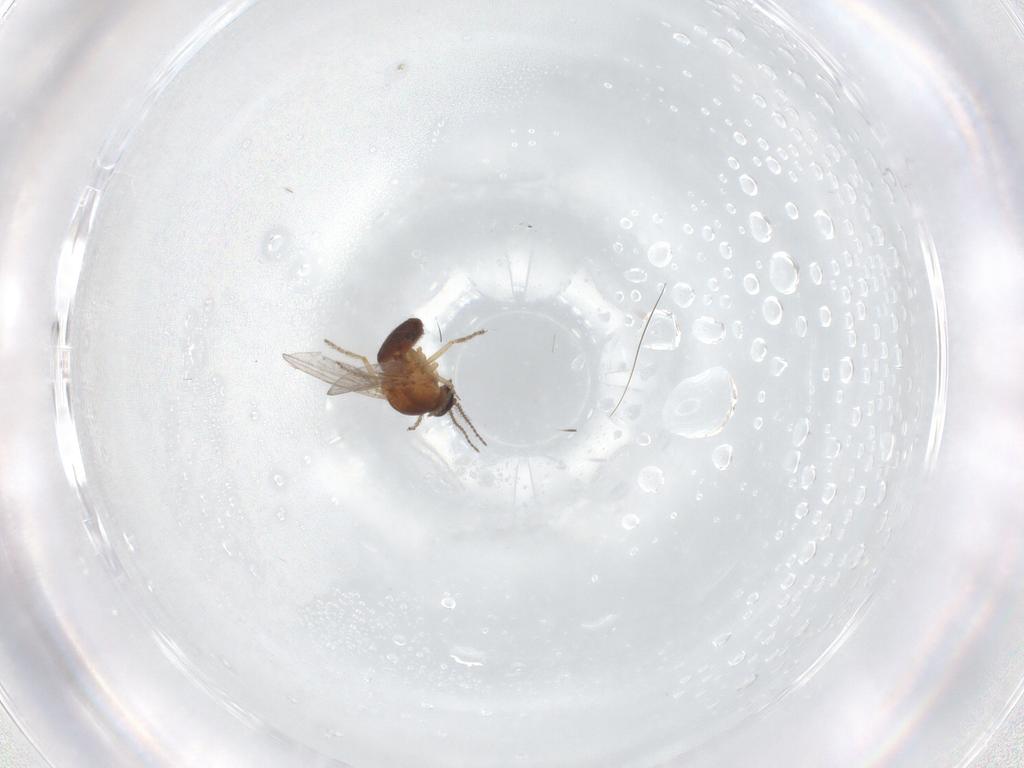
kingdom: Animalia
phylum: Arthropoda
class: Insecta
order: Diptera
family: Ceratopogonidae
